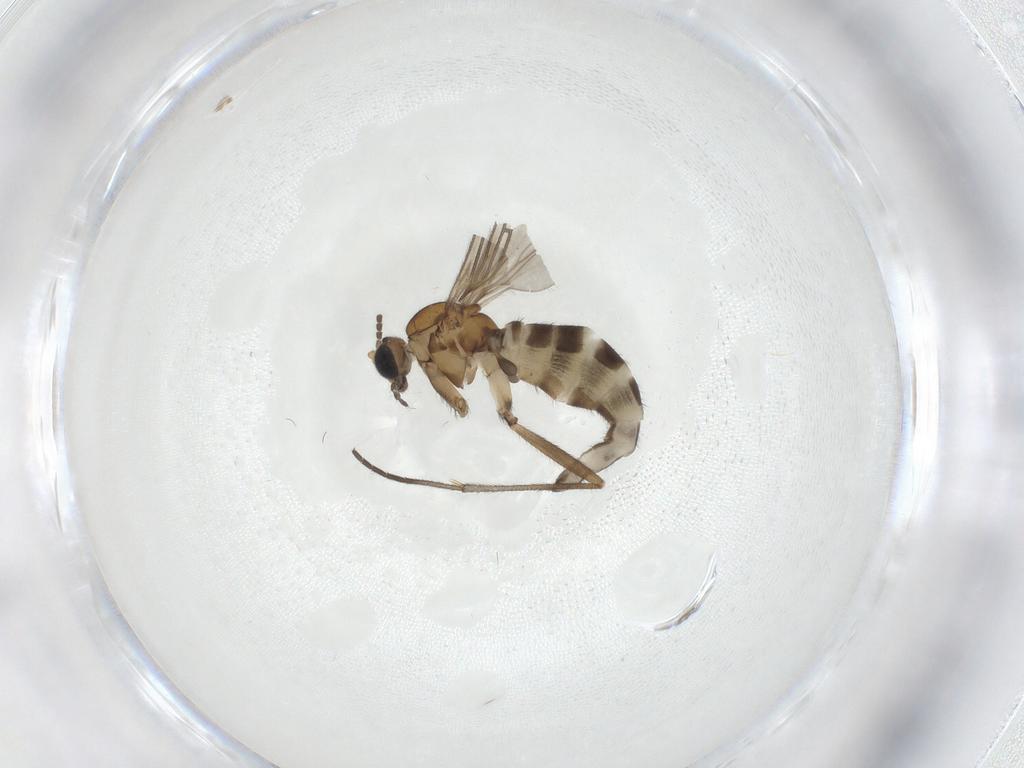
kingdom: Animalia
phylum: Arthropoda
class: Insecta
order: Diptera
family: Sciaridae
